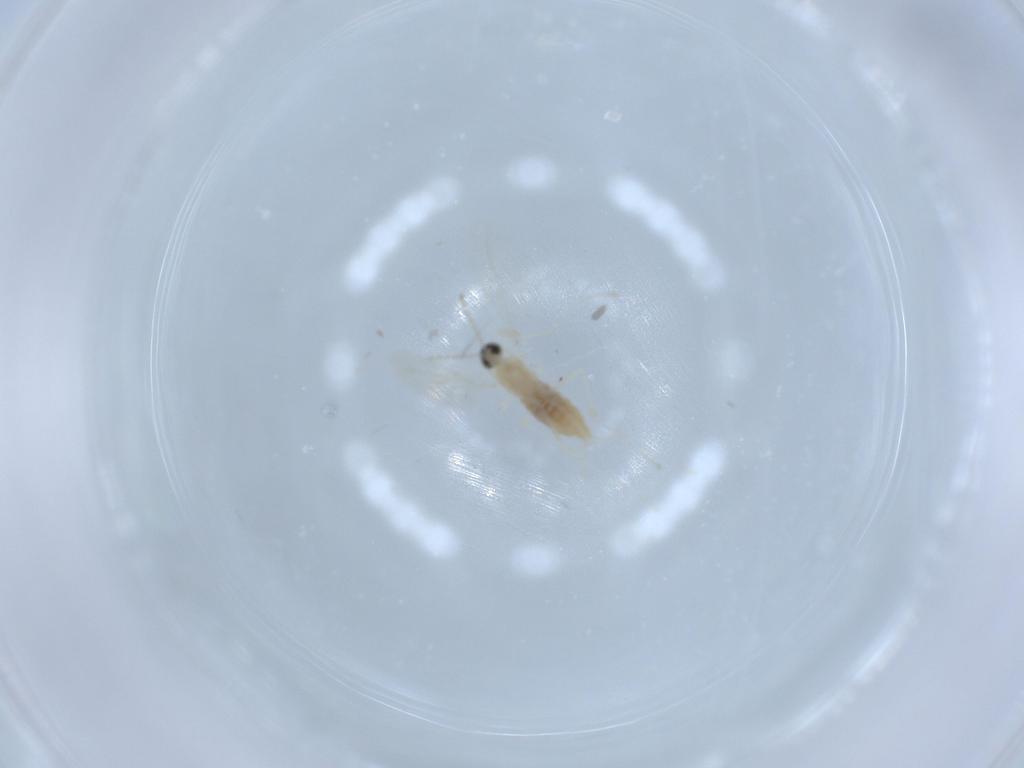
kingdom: Animalia
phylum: Arthropoda
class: Insecta
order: Diptera
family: Cecidomyiidae
